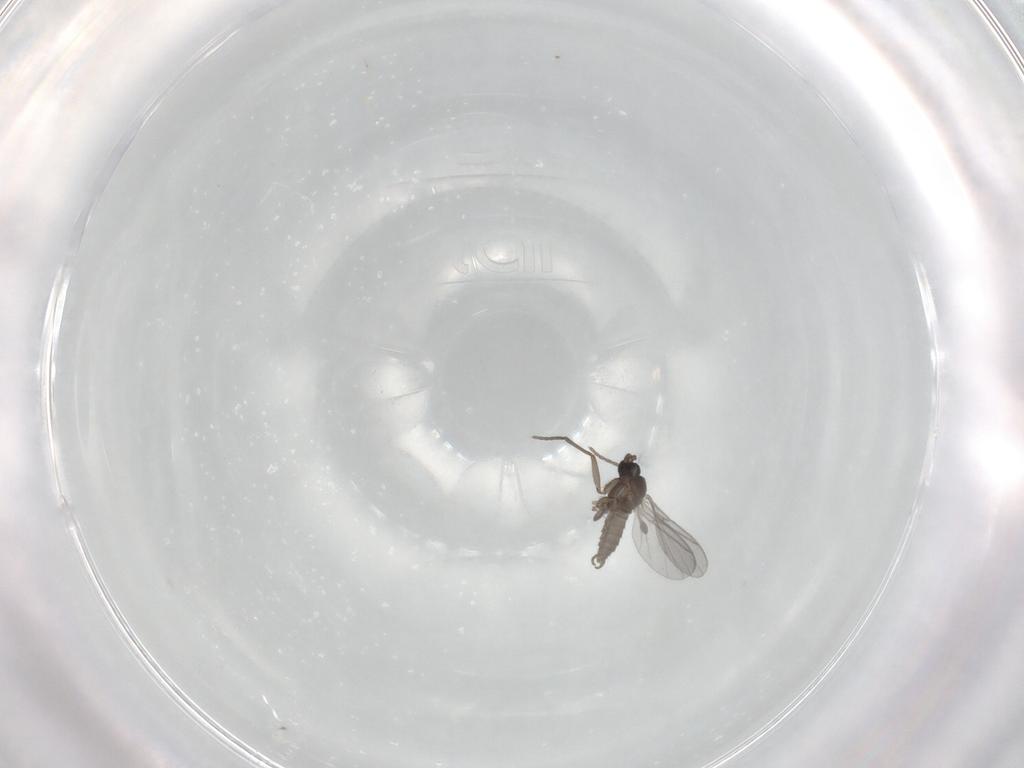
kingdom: Animalia
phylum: Arthropoda
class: Insecta
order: Diptera
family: Sciaridae
